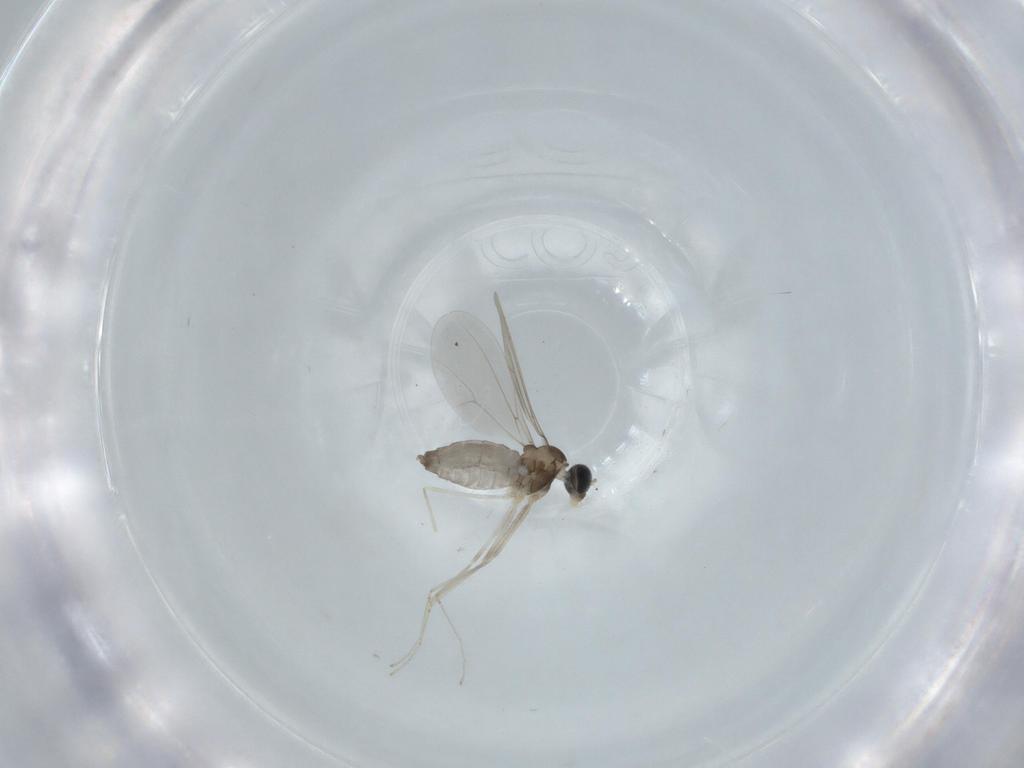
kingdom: Animalia
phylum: Arthropoda
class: Insecta
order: Diptera
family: Cecidomyiidae
